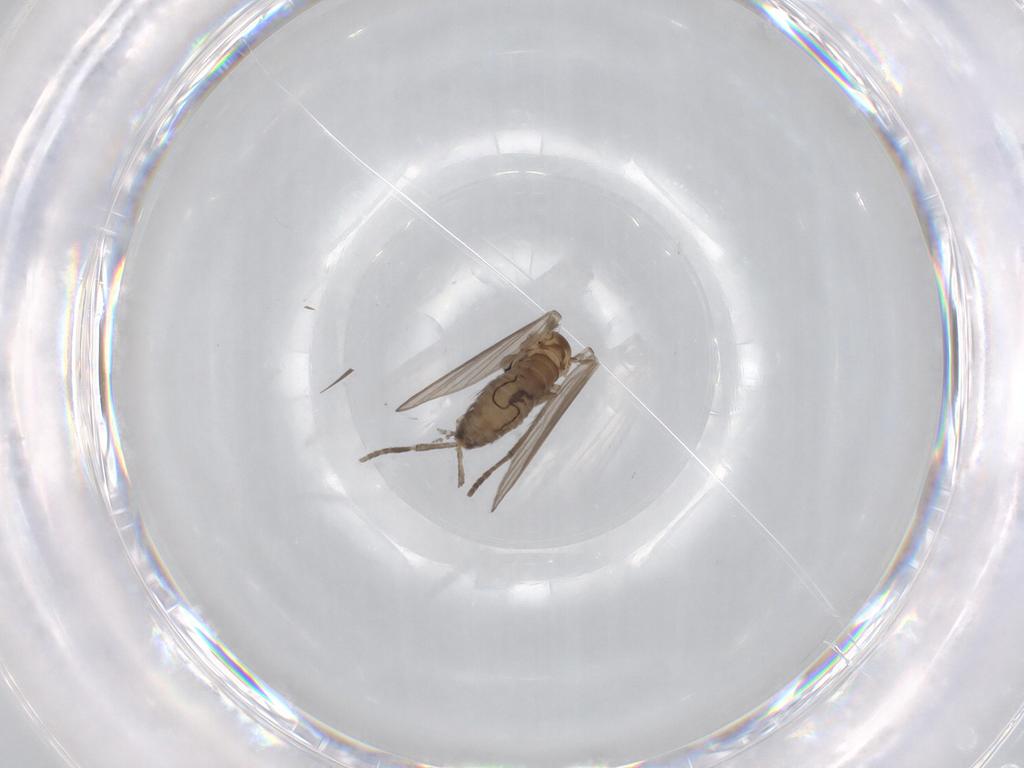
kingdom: Animalia
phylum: Arthropoda
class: Insecta
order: Diptera
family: Psychodidae
